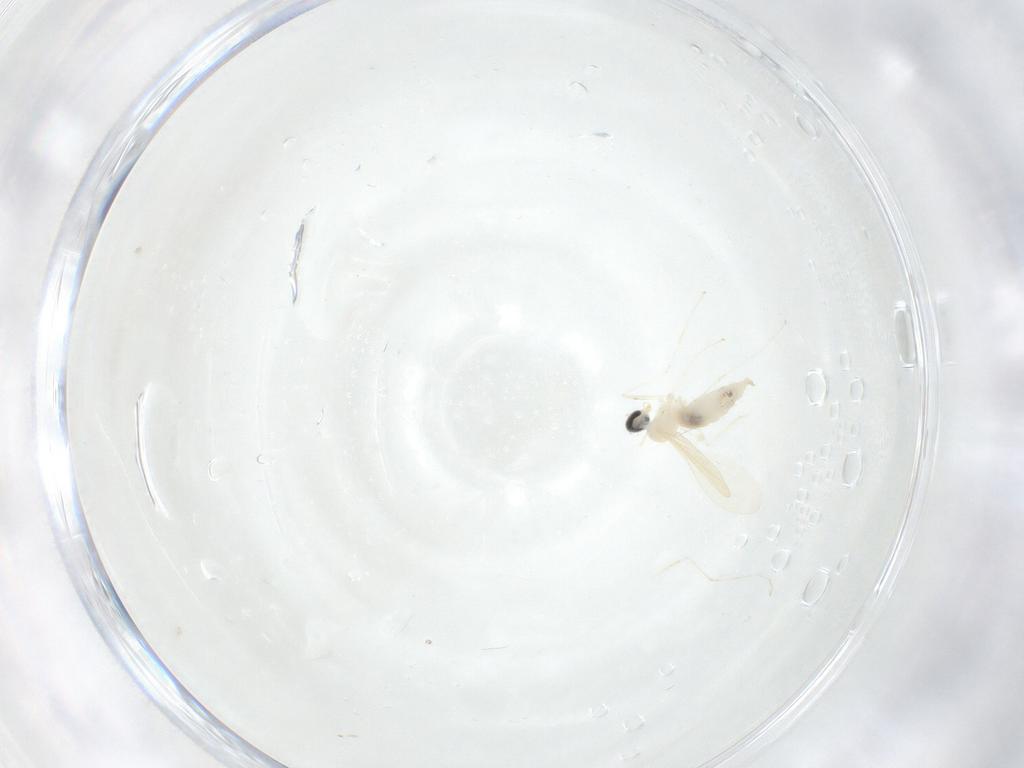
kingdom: Animalia
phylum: Arthropoda
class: Insecta
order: Diptera
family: Cecidomyiidae
